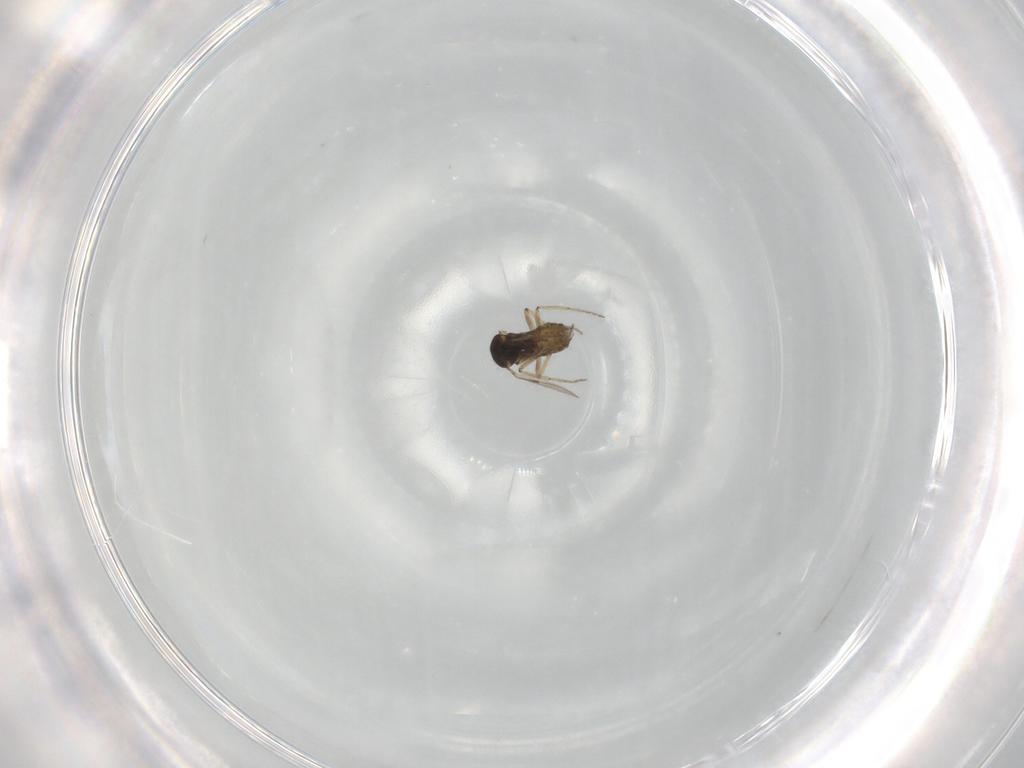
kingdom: Animalia
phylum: Arthropoda
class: Insecta
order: Diptera
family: Ceratopogonidae
